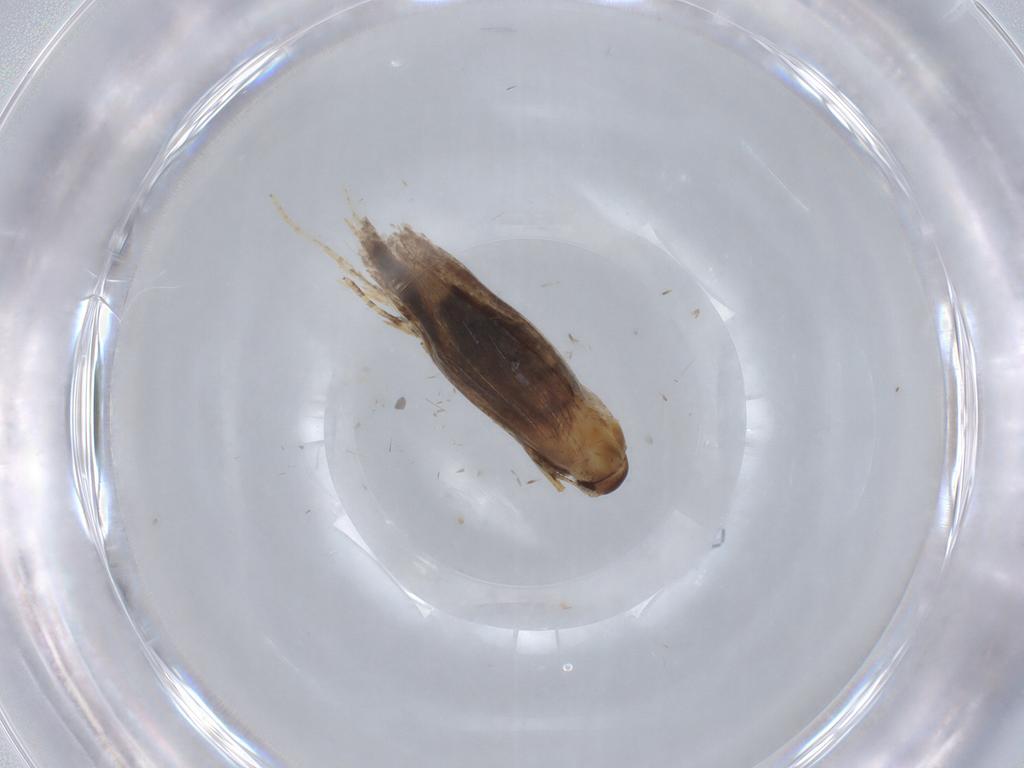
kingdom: Animalia
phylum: Arthropoda
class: Insecta
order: Lepidoptera
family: Oecophoridae
